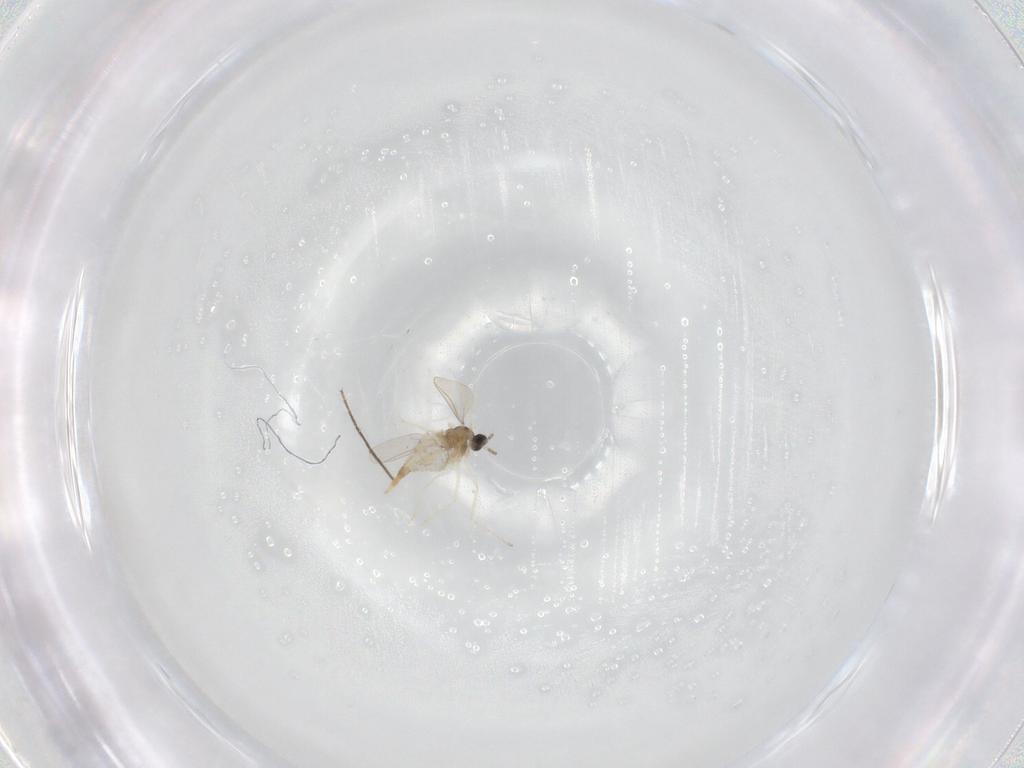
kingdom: Animalia
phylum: Arthropoda
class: Insecta
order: Diptera
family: Cecidomyiidae
